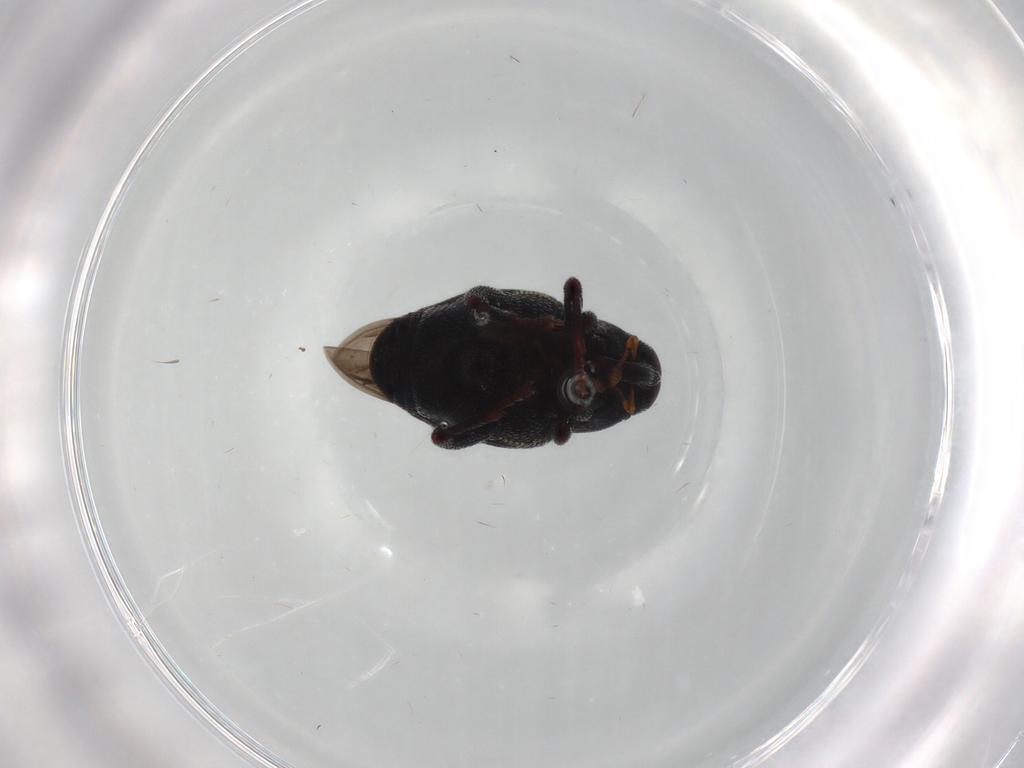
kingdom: Animalia
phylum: Arthropoda
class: Insecta
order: Coleoptera
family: Curculionidae
